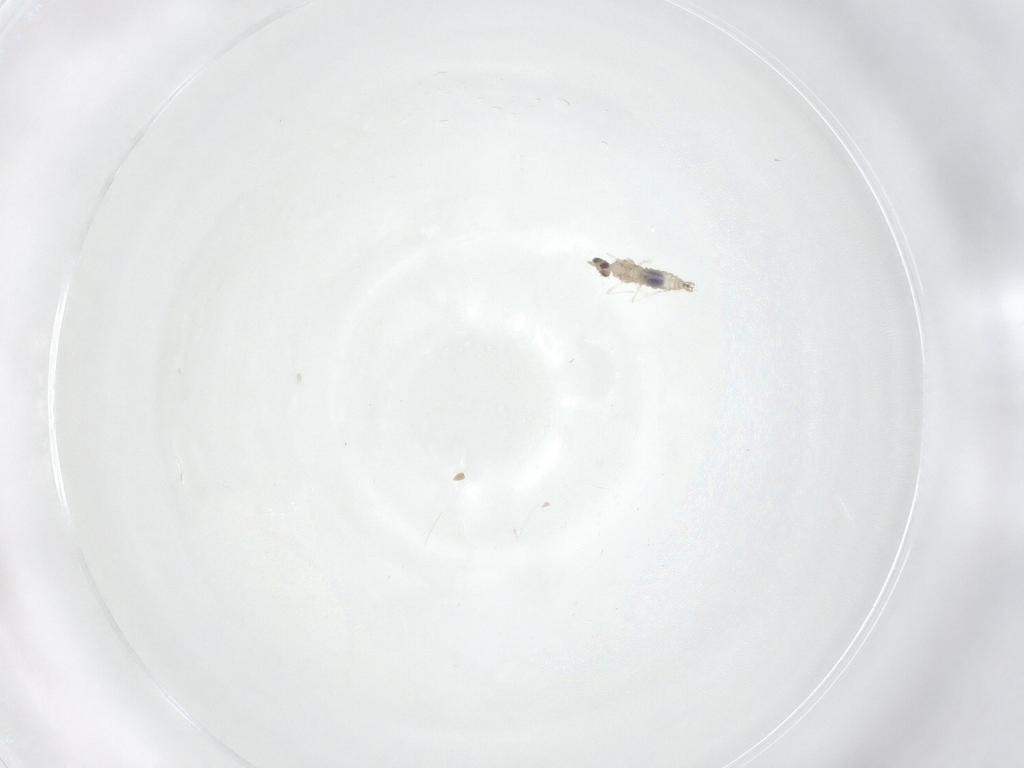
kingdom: Animalia
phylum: Arthropoda
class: Insecta
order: Diptera
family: Cecidomyiidae
